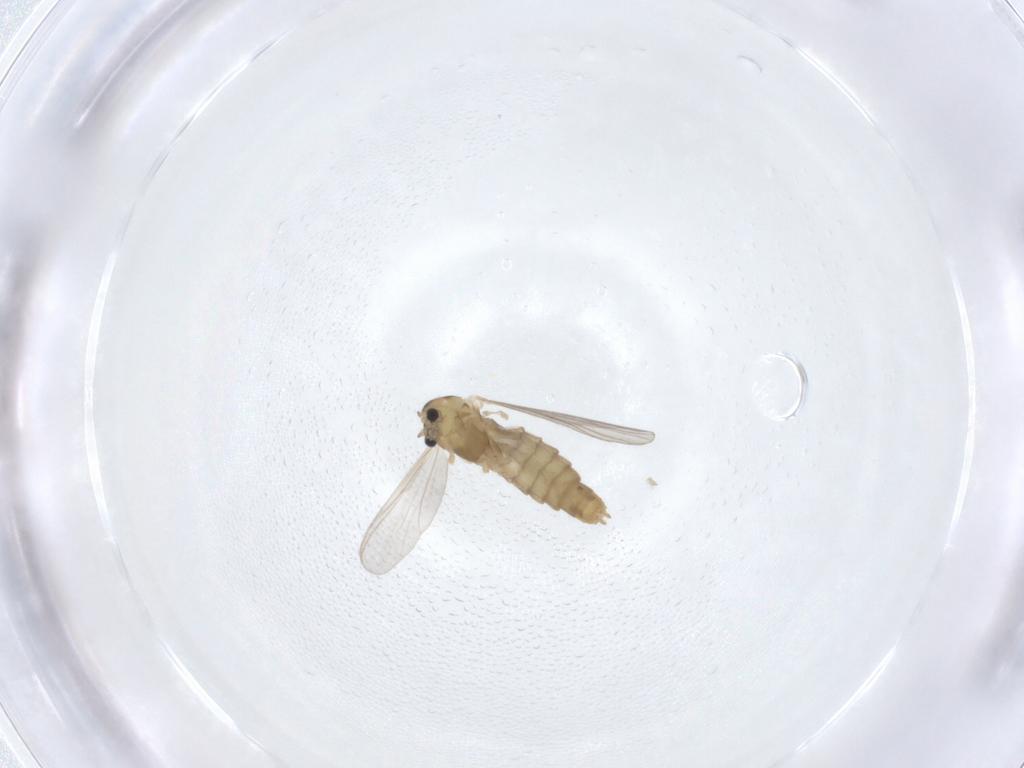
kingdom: Animalia
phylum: Arthropoda
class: Insecta
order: Diptera
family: Chironomidae
